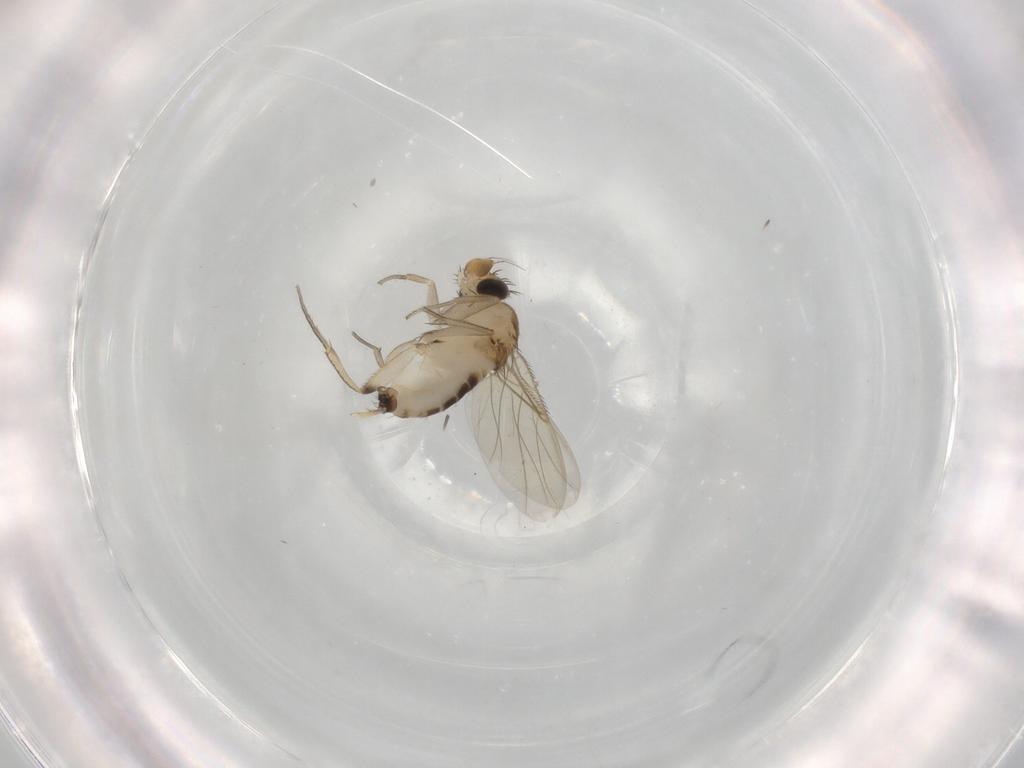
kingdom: Animalia
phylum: Arthropoda
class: Insecta
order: Diptera
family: Phoridae
